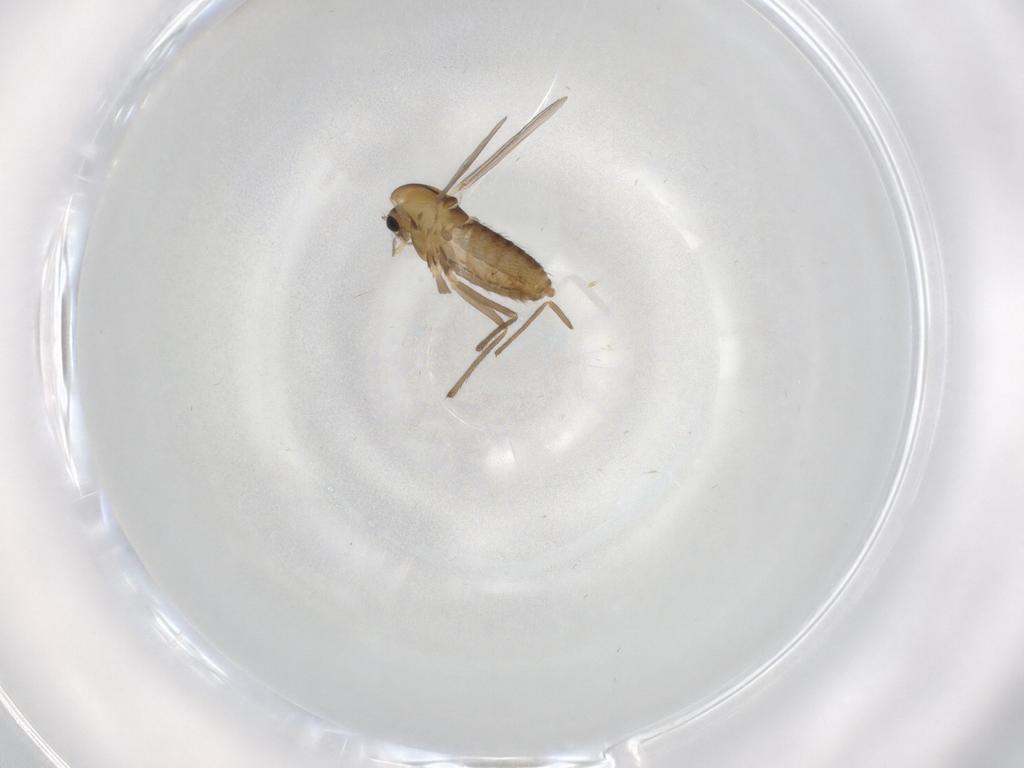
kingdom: Animalia
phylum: Arthropoda
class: Insecta
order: Diptera
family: Chironomidae
